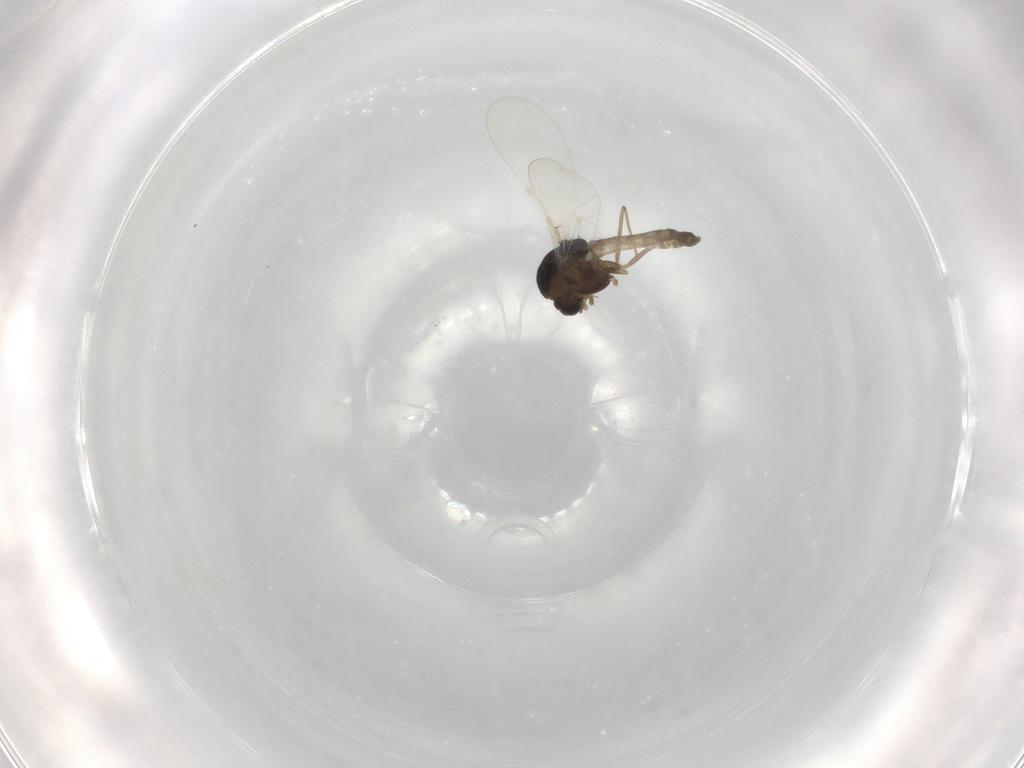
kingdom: Animalia
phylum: Arthropoda
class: Insecta
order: Diptera
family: Chironomidae
